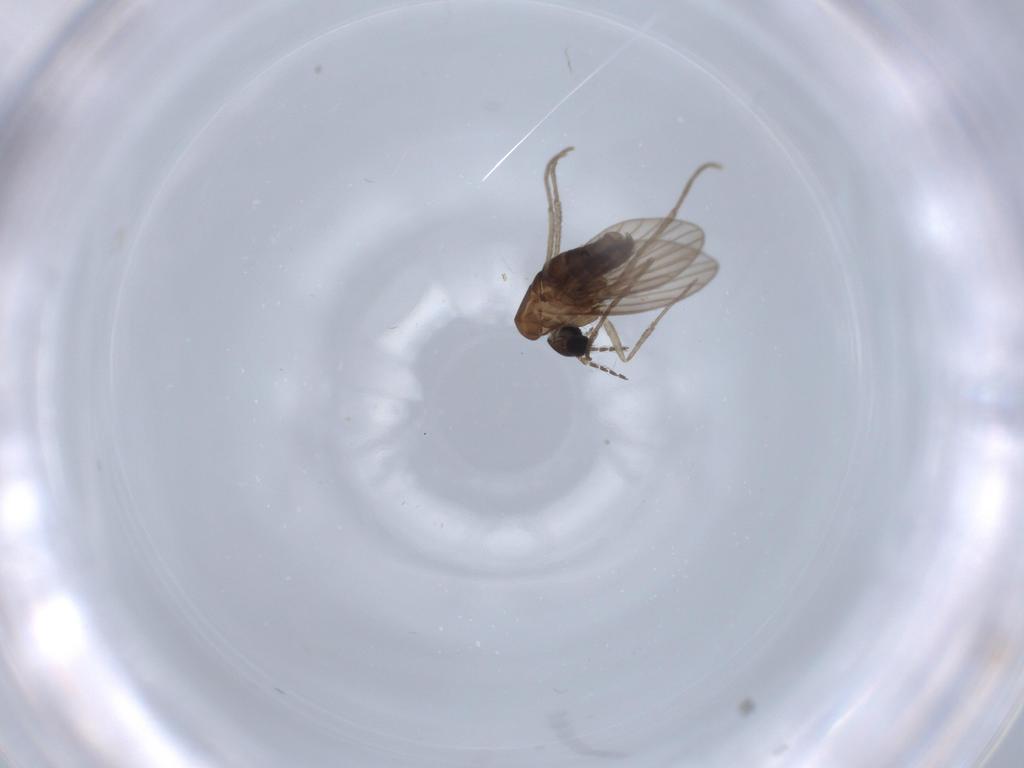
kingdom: Animalia
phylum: Arthropoda
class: Insecta
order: Diptera
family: Psychodidae
